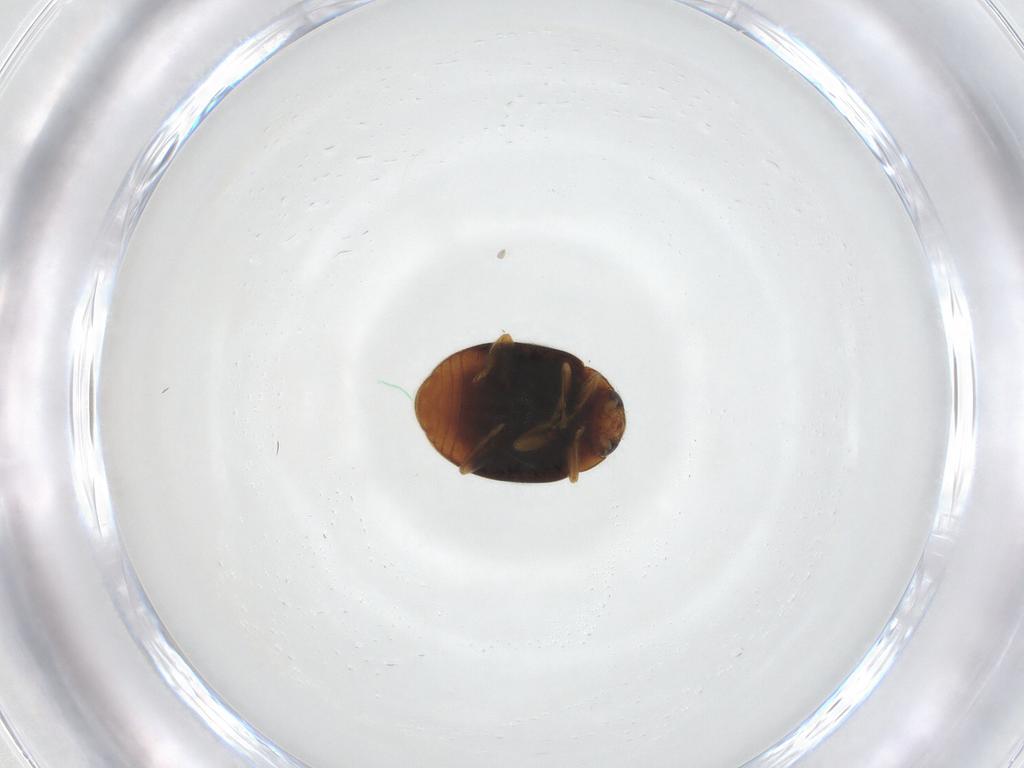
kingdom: Animalia
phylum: Arthropoda
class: Insecta
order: Coleoptera
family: Coccinellidae
